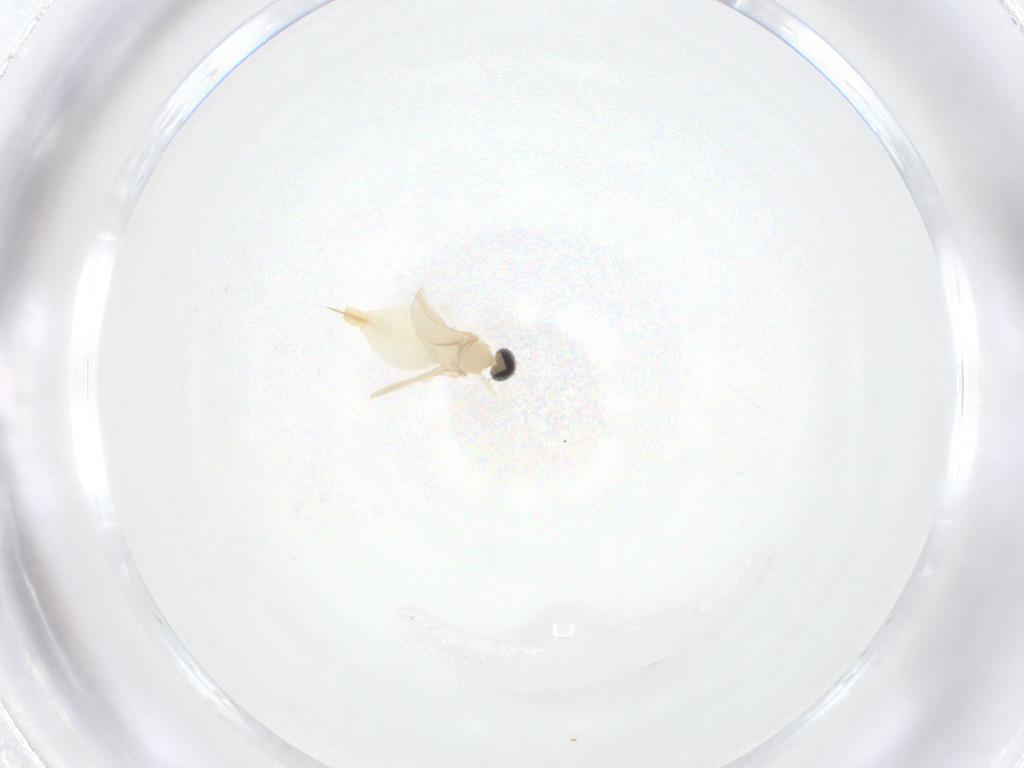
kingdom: Animalia
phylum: Arthropoda
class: Insecta
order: Diptera
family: Cecidomyiidae
